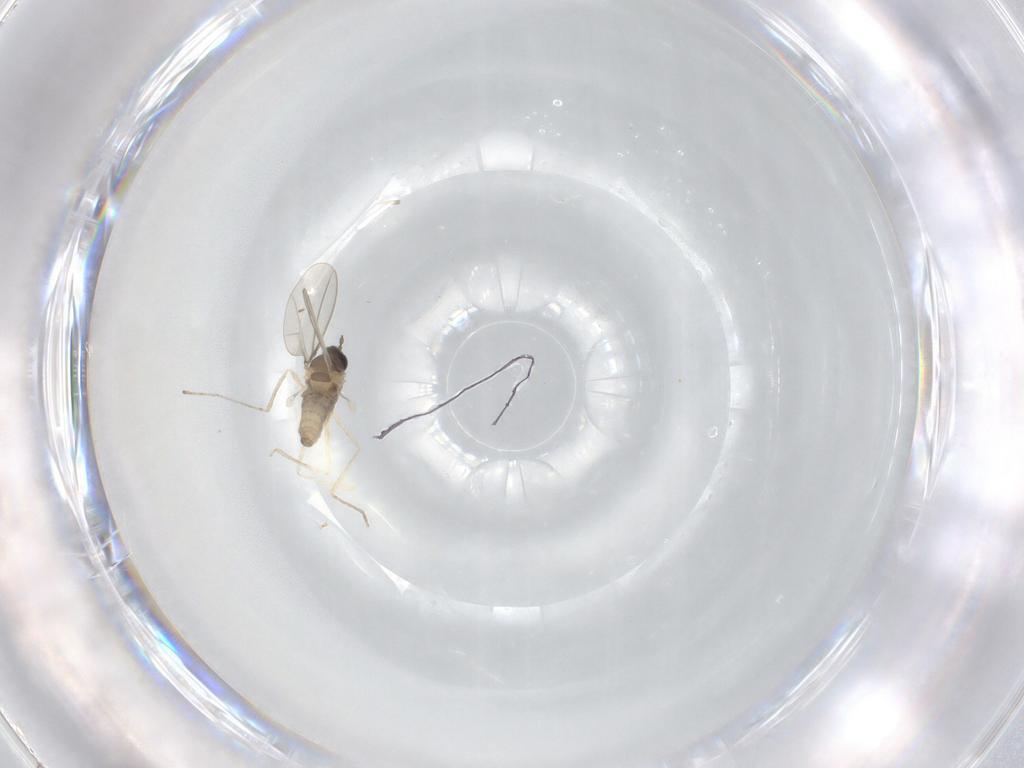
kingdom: Animalia
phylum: Arthropoda
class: Insecta
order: Diptera
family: Cecidomyiidae
